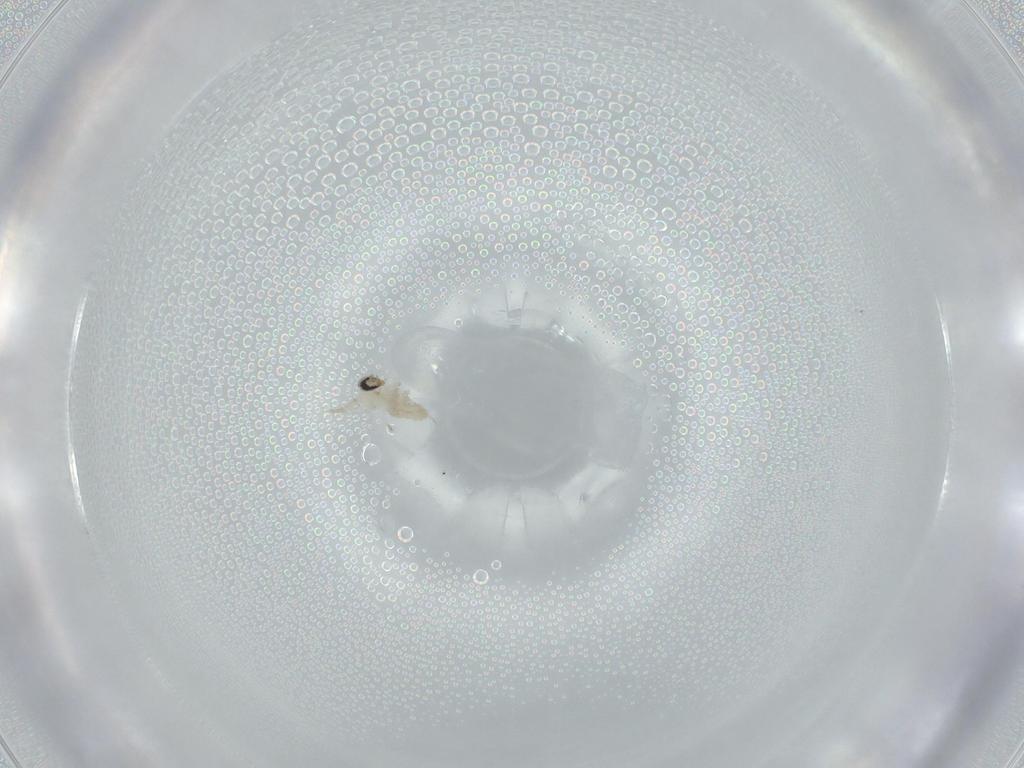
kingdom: Animalia
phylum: Arthropoda
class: Insecta
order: Diptera
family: Cecidomyiidae
